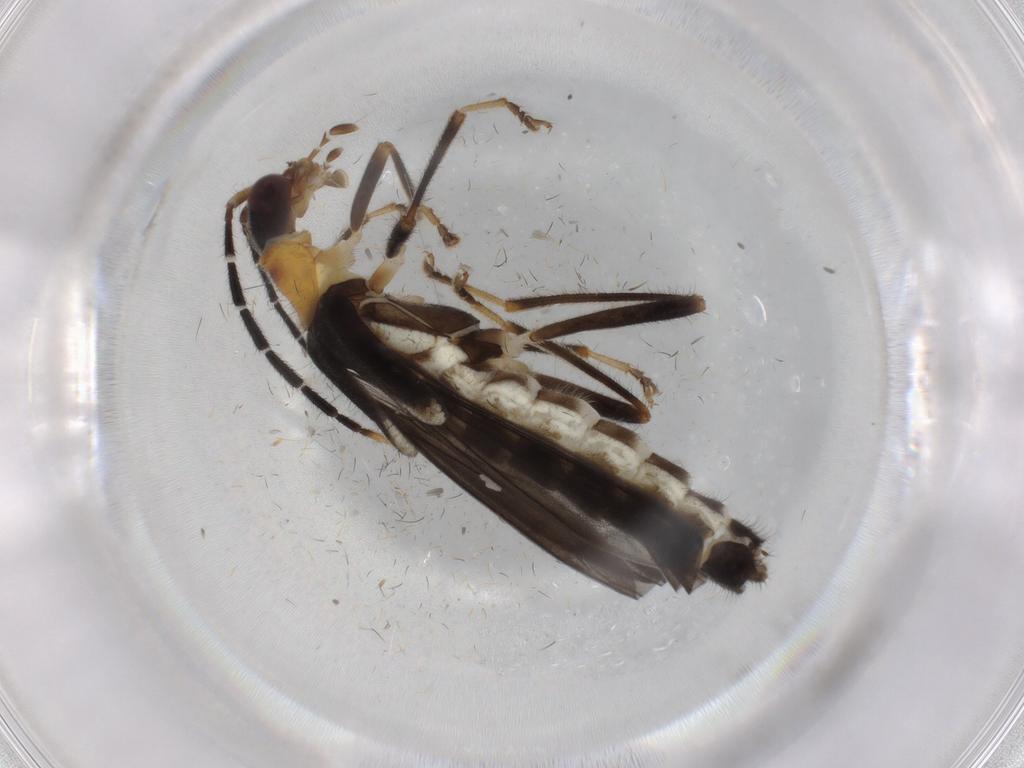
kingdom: Animalia
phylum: Arthropoda
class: Insecta
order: Coleoptera
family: Cantharidae
